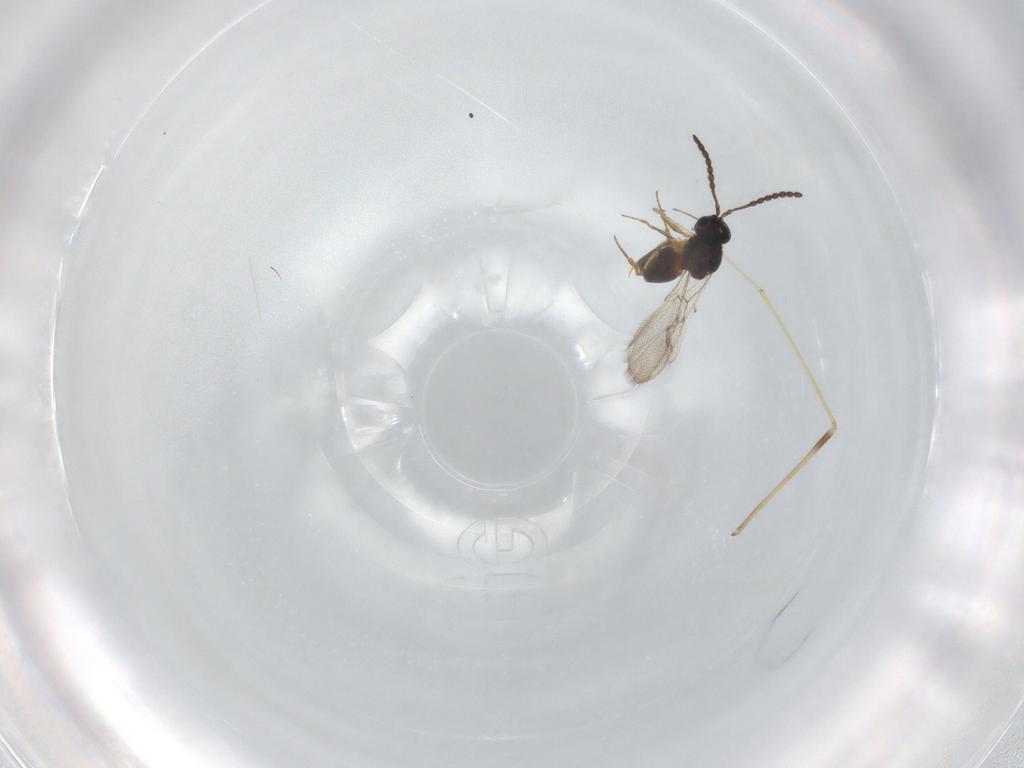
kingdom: Animalia
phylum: Arthropoda
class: Insecta
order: Hymenoptera
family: Figitidae
